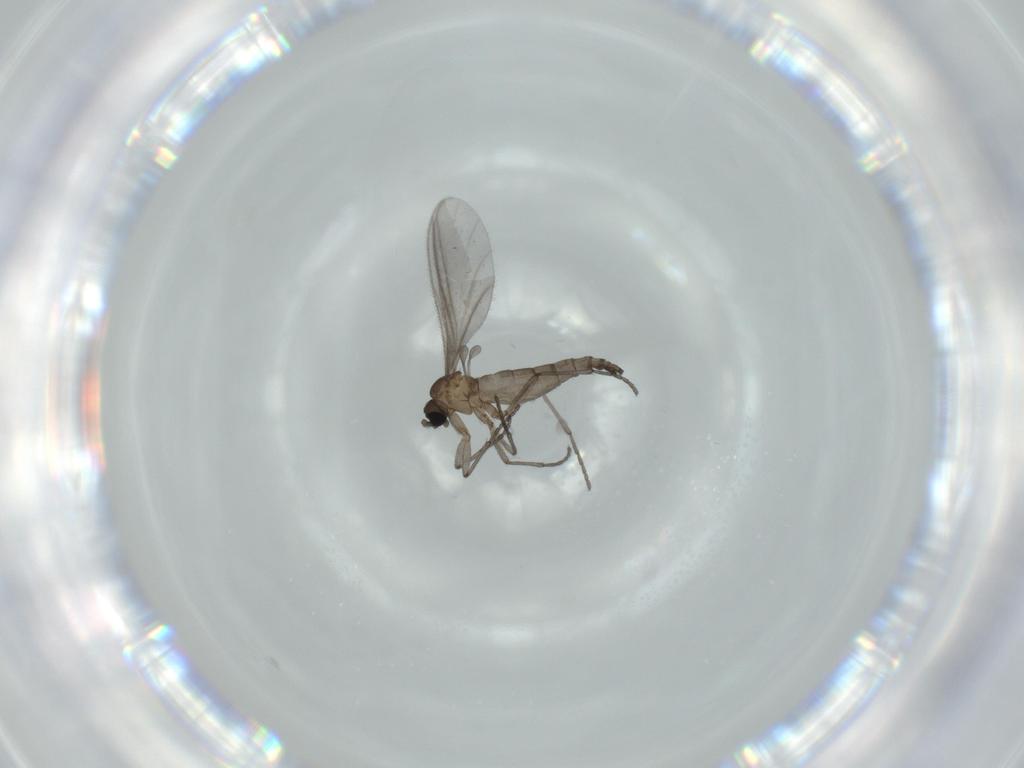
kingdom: Animalia
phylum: Arthropoda
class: Insecta
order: Diptera
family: Sciaridae
